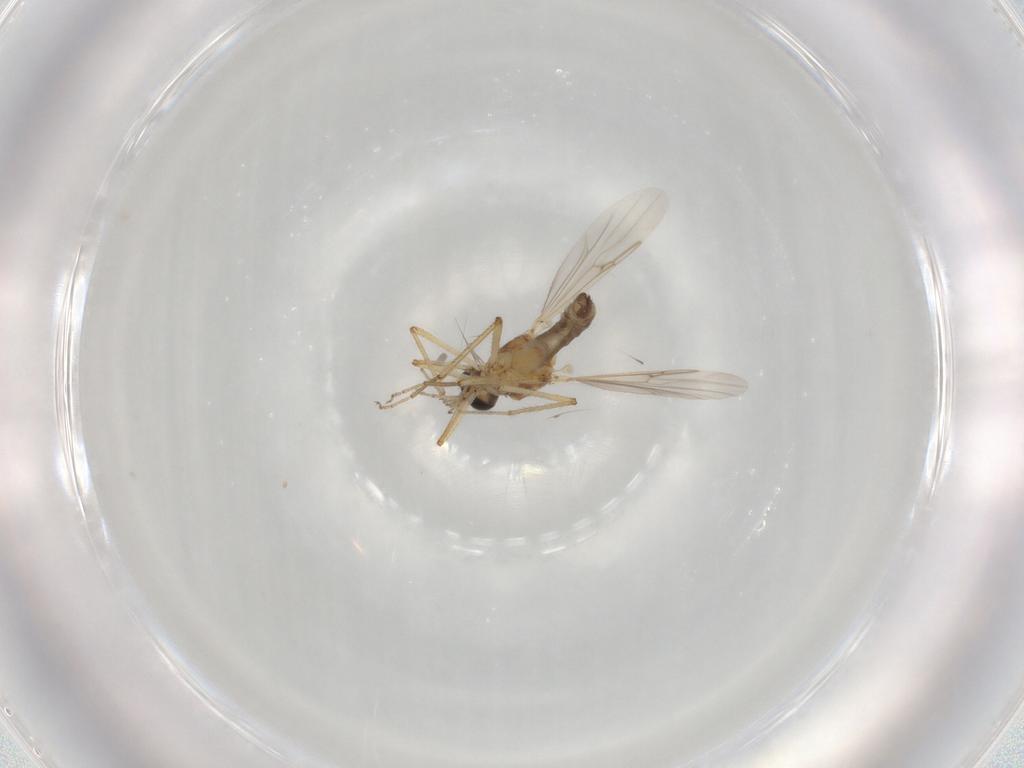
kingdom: Animalia
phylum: Arthropoda
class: Insecta
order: Diptera
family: Ceratopogonidae
